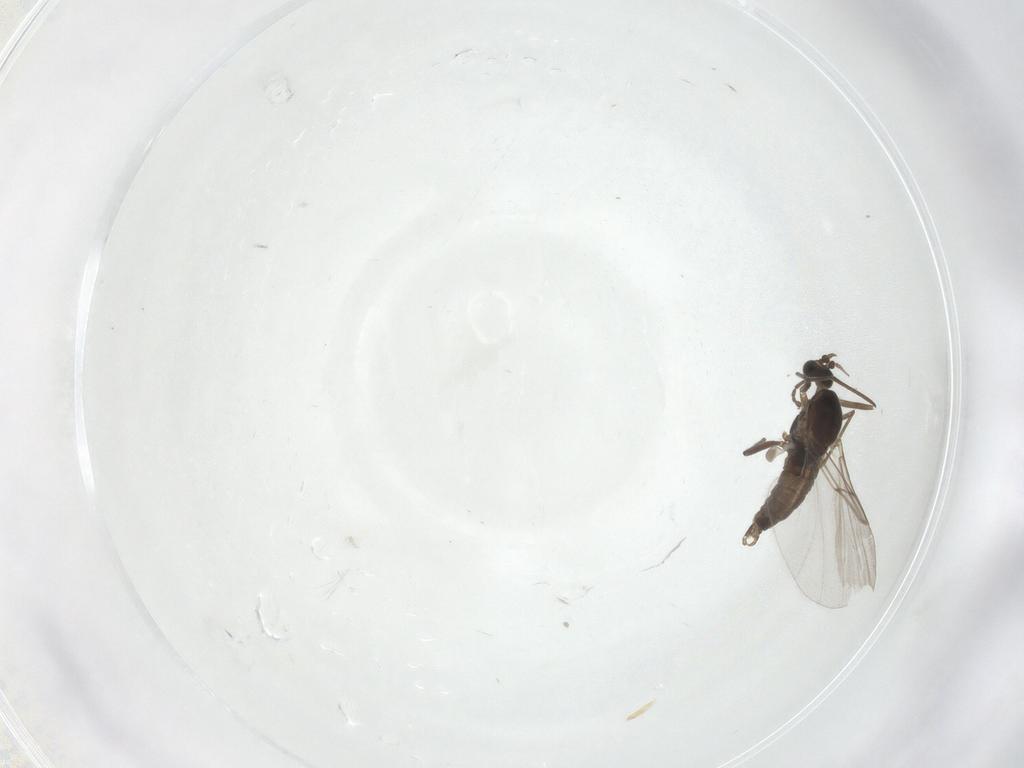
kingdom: Animalia
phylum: Arthropoda
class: Insecta
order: Diptera
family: Cecidomyiidae
